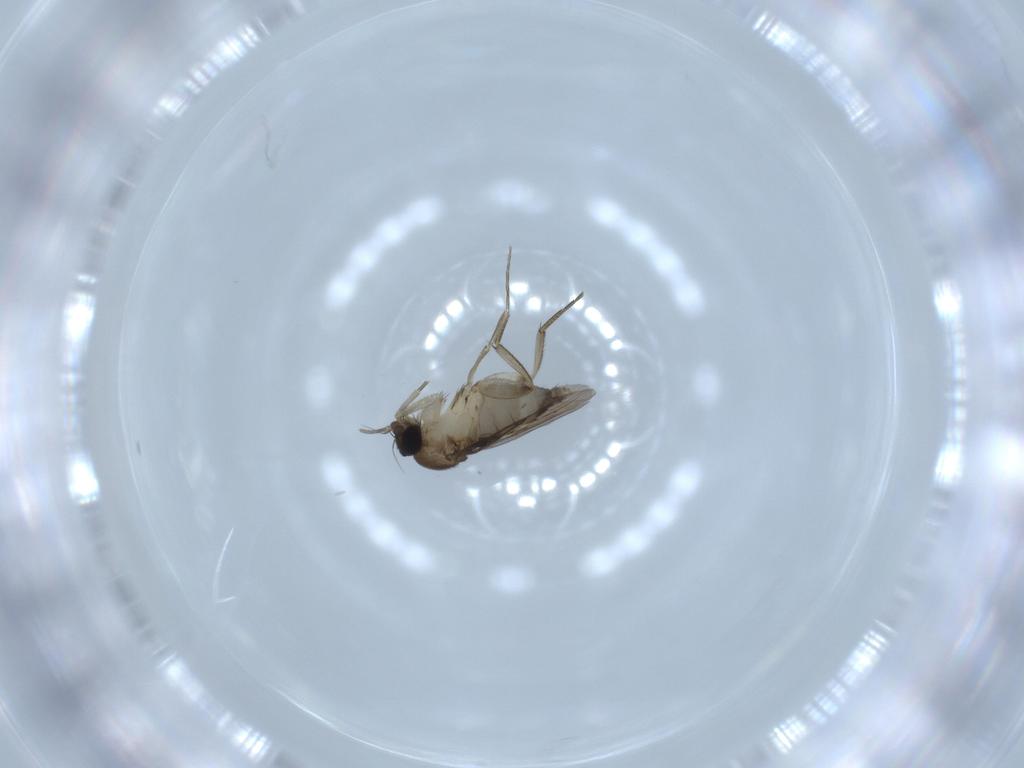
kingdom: Animalia
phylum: Arthropoda
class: Insecta
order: Diptera
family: Phoridae
